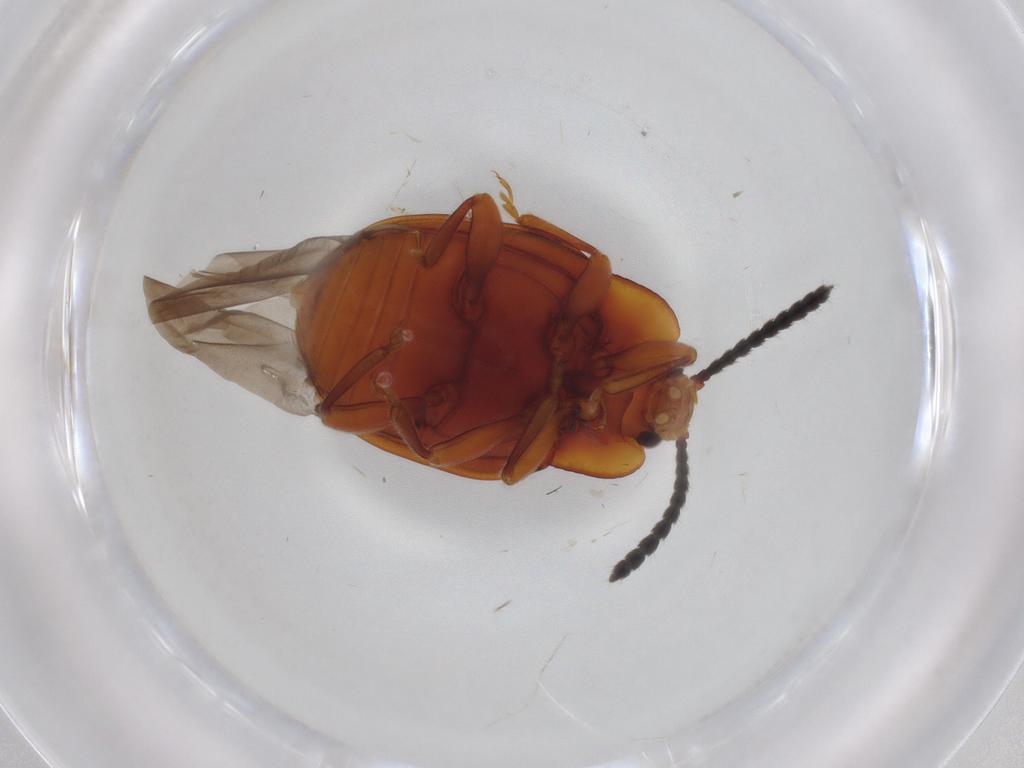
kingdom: Animalia
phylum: Arthropoda
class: Insecta
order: Coleoptera
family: Endomychidae
